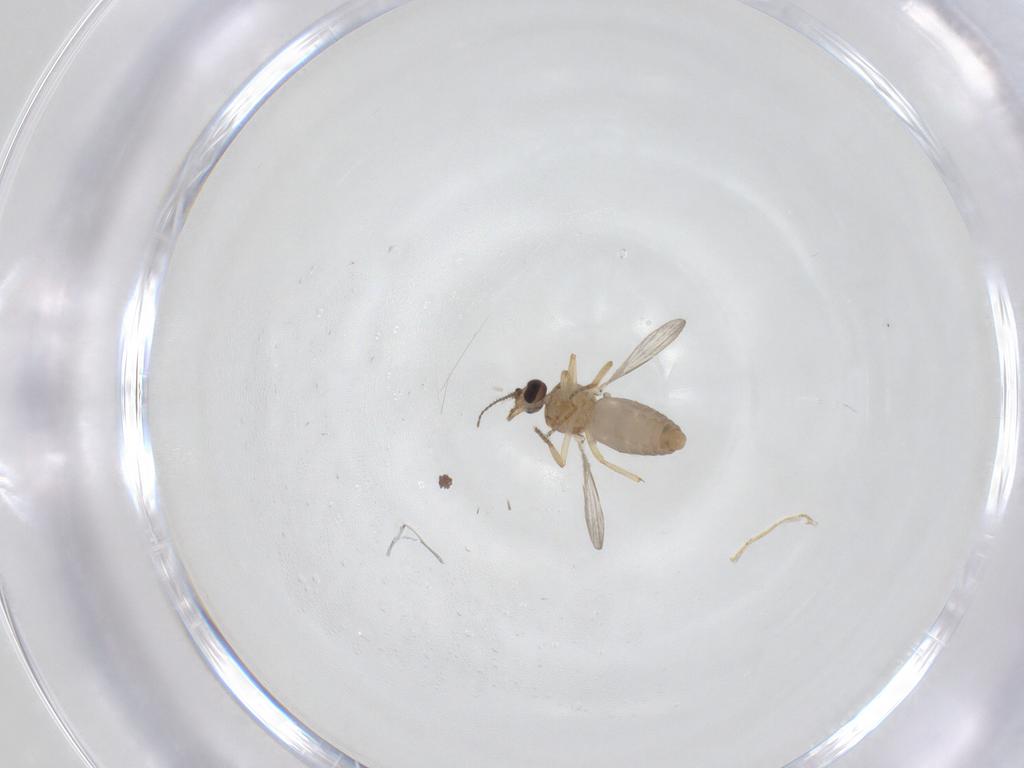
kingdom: Animalia
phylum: Arthropoda
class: Insecta
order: Diptera
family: Ceratopogonidae
